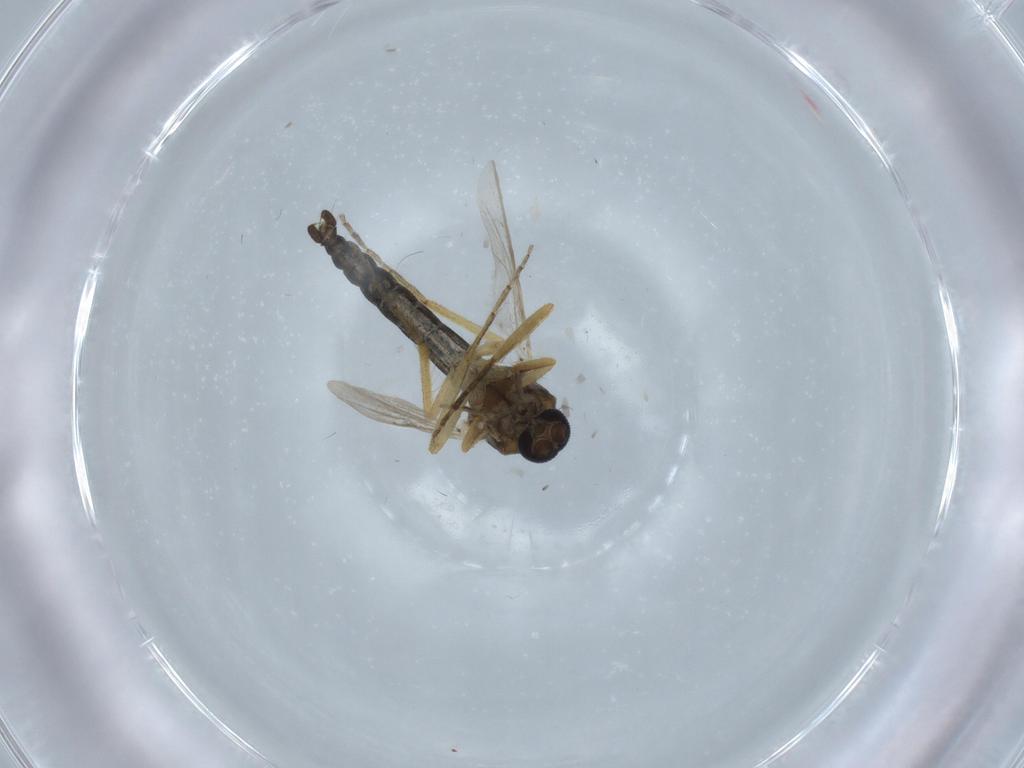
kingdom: Animalia
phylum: Arthropoda
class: Insecta
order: Diptera
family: Ceratopogonidae
